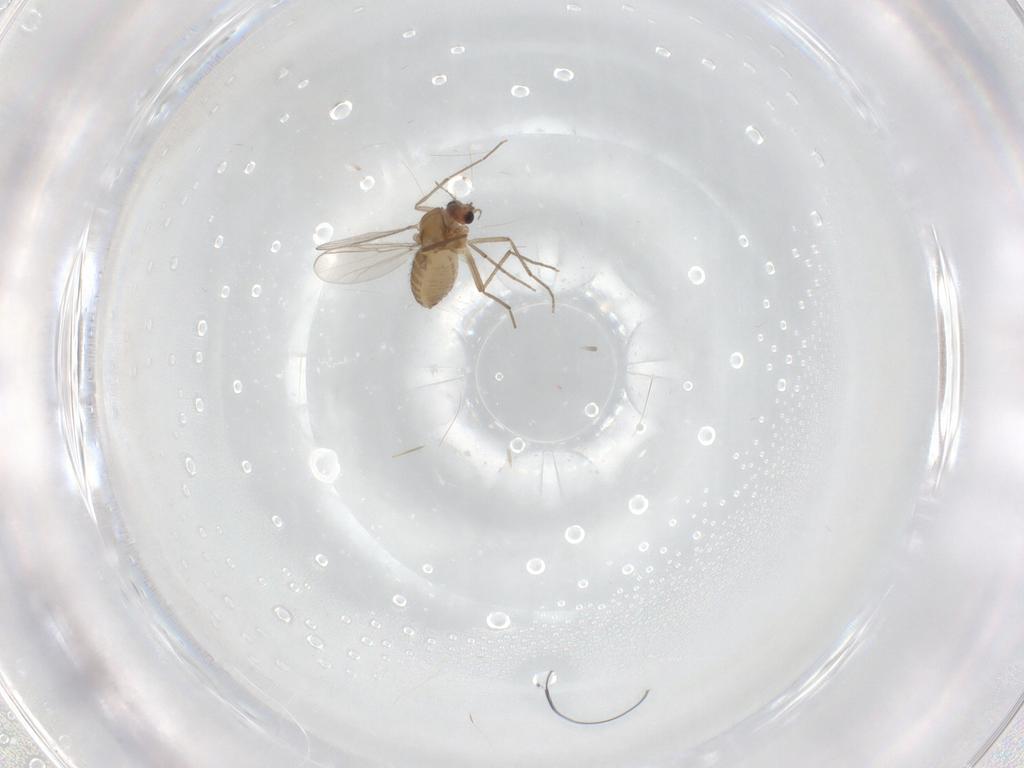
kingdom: Animalia
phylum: Arthropoda
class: Insecta
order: Diptera
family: Chironomidae
